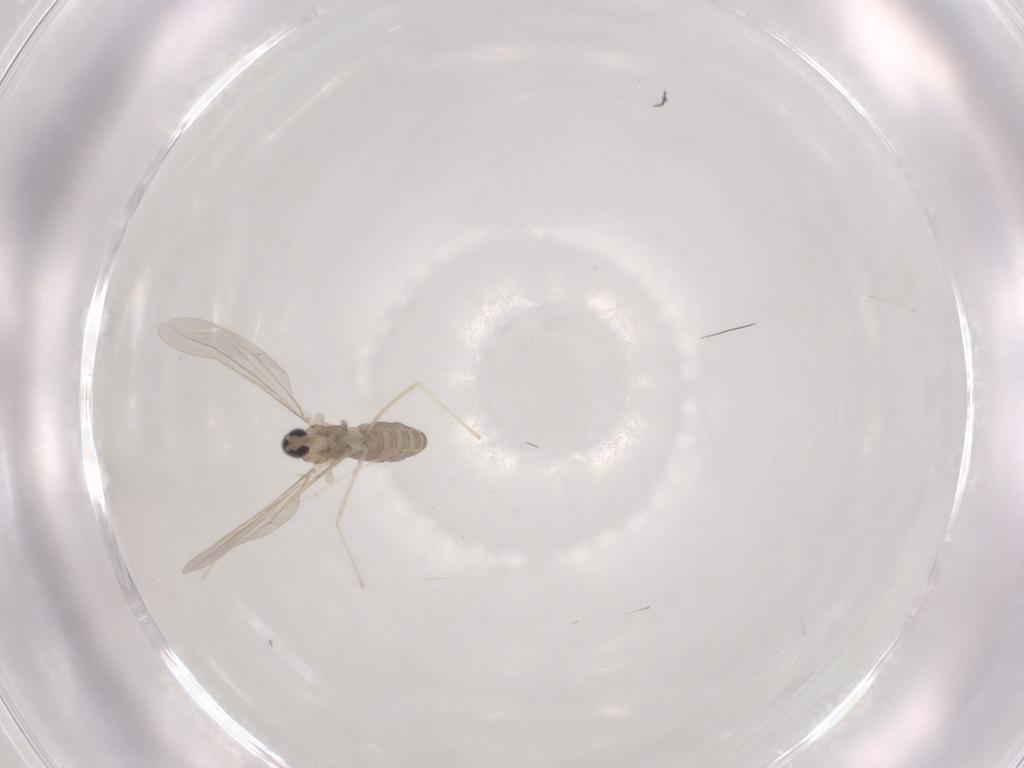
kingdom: Animalia
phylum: Arthropoda
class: Insecta
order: Diptera
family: Cecidomyiidae
